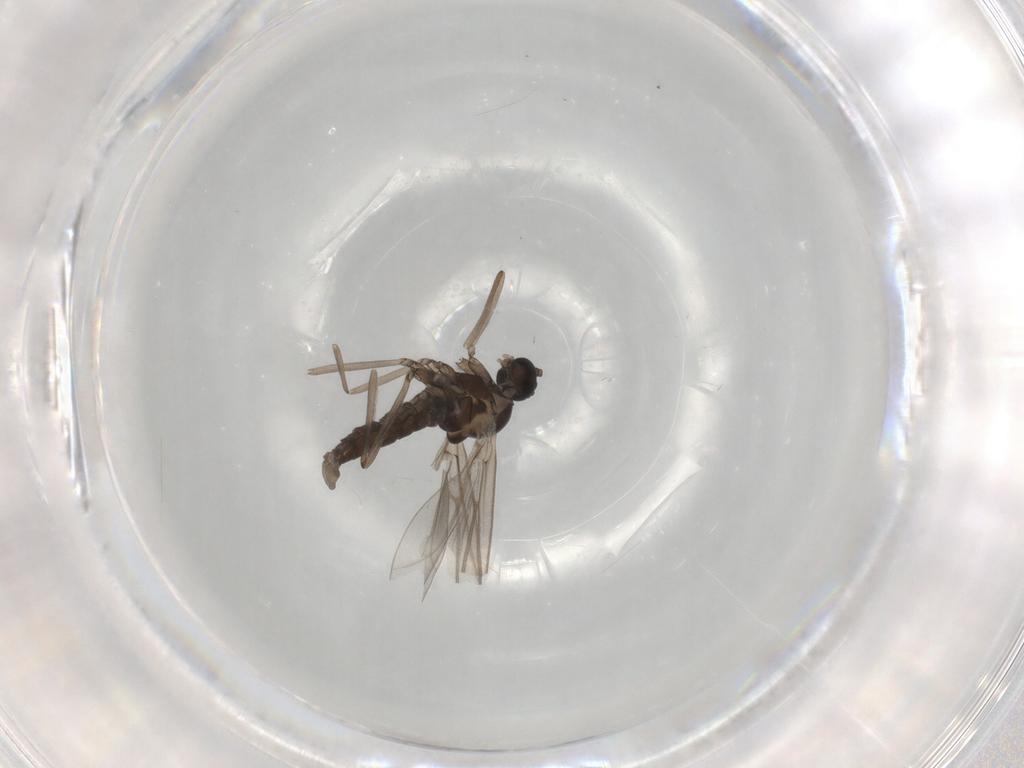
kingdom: Animalia
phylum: Arthropoda
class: Insecta
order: Diptera
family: Cecidomyiidae
